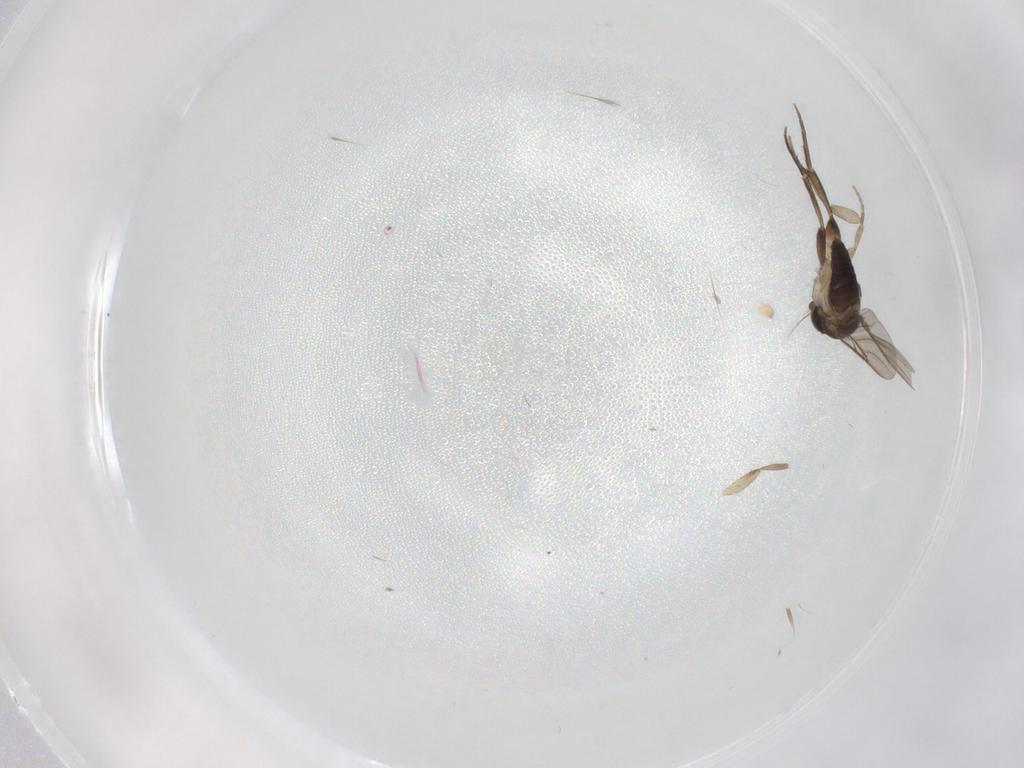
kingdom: Animalia
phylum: Arthropoda
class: Insecta
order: Diptera
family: Phoridae
